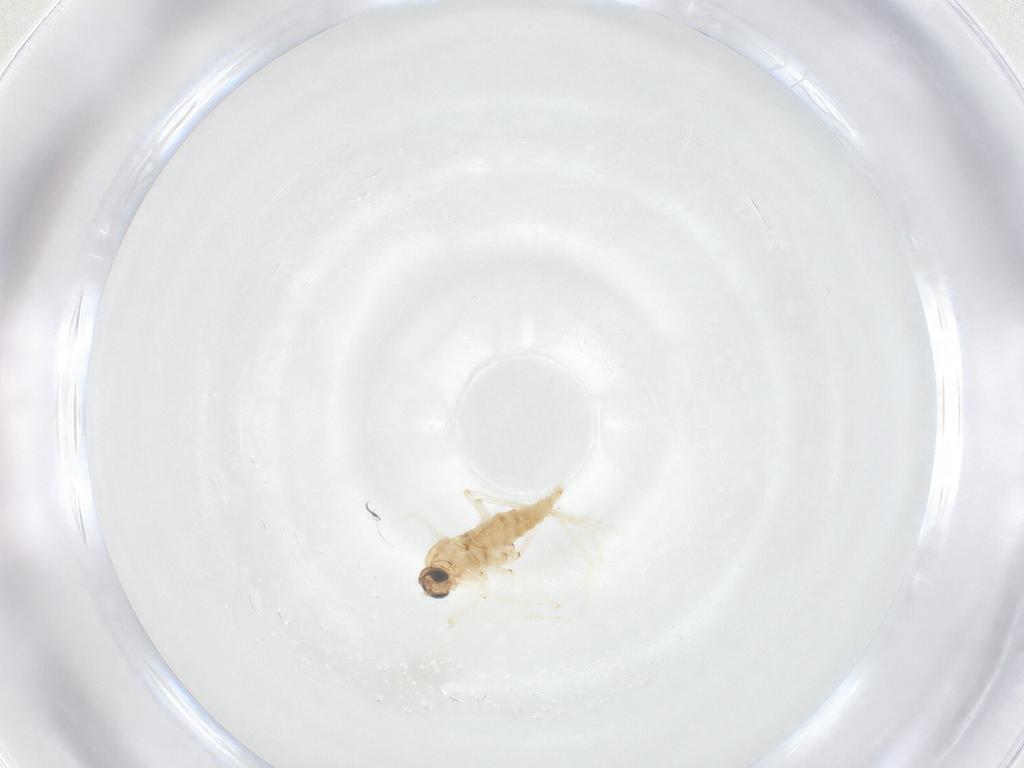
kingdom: Animalia
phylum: Arthropoda
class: Insecta
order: Diptera
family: Sciaridae
